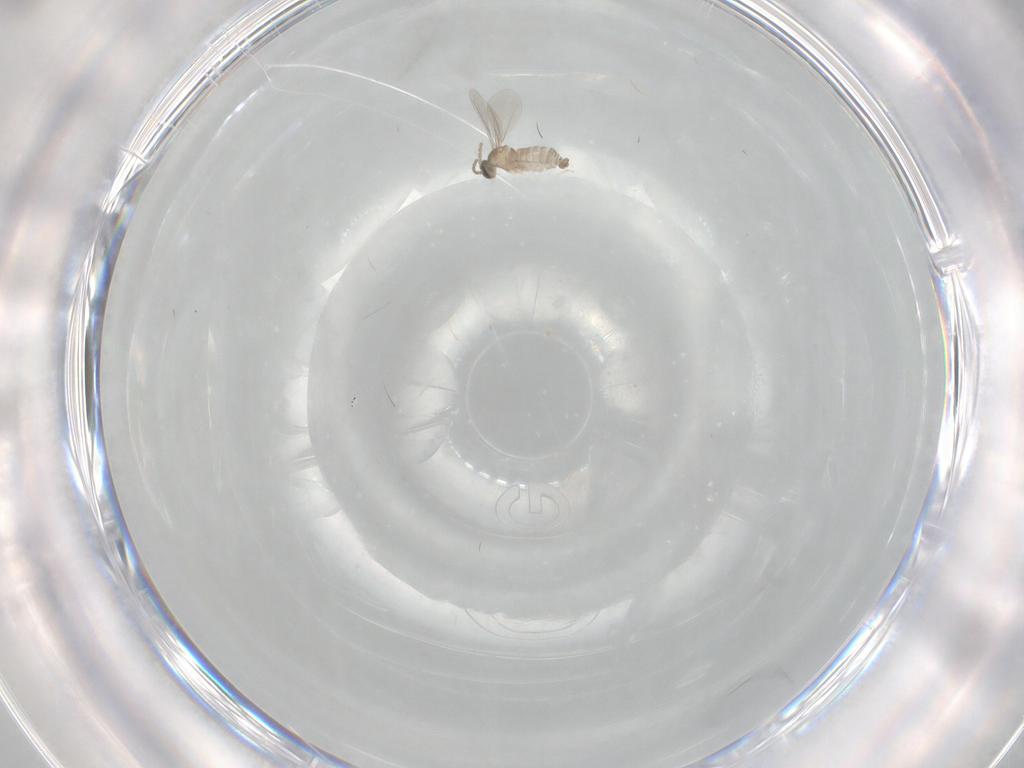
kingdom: Animalia
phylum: Arthropoda
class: Insecta
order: Diptera
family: Cecidomyiidae
